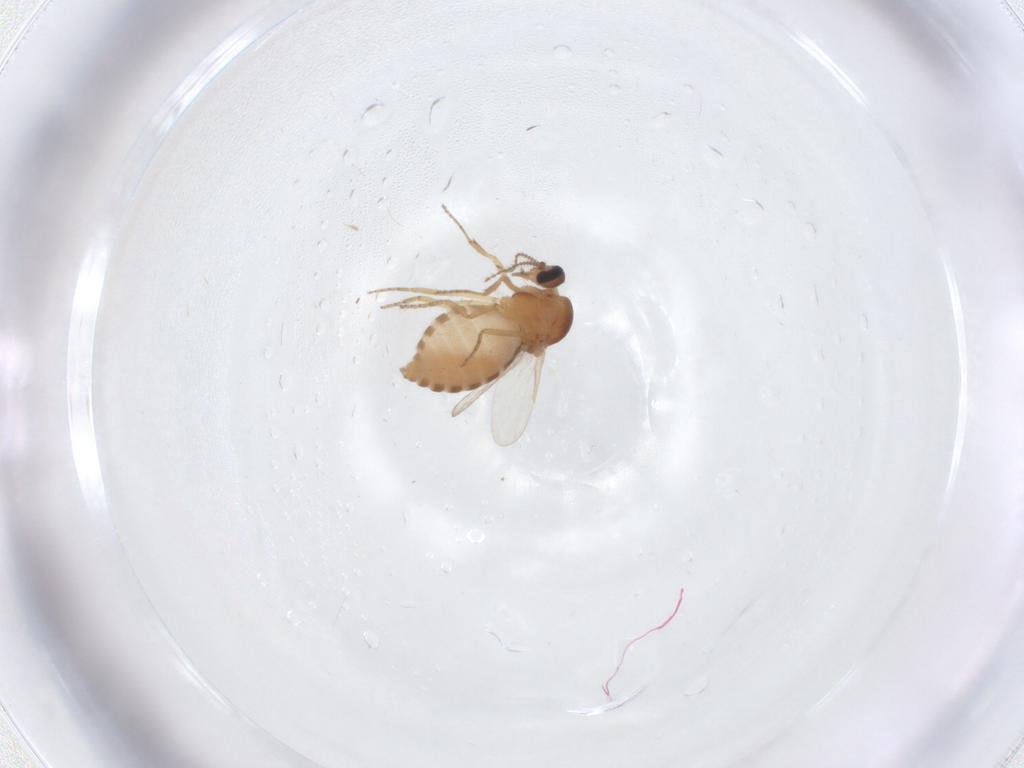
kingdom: Animalia
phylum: Arthropoda
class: Insecta
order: Diptera
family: Ceratopogonidae
